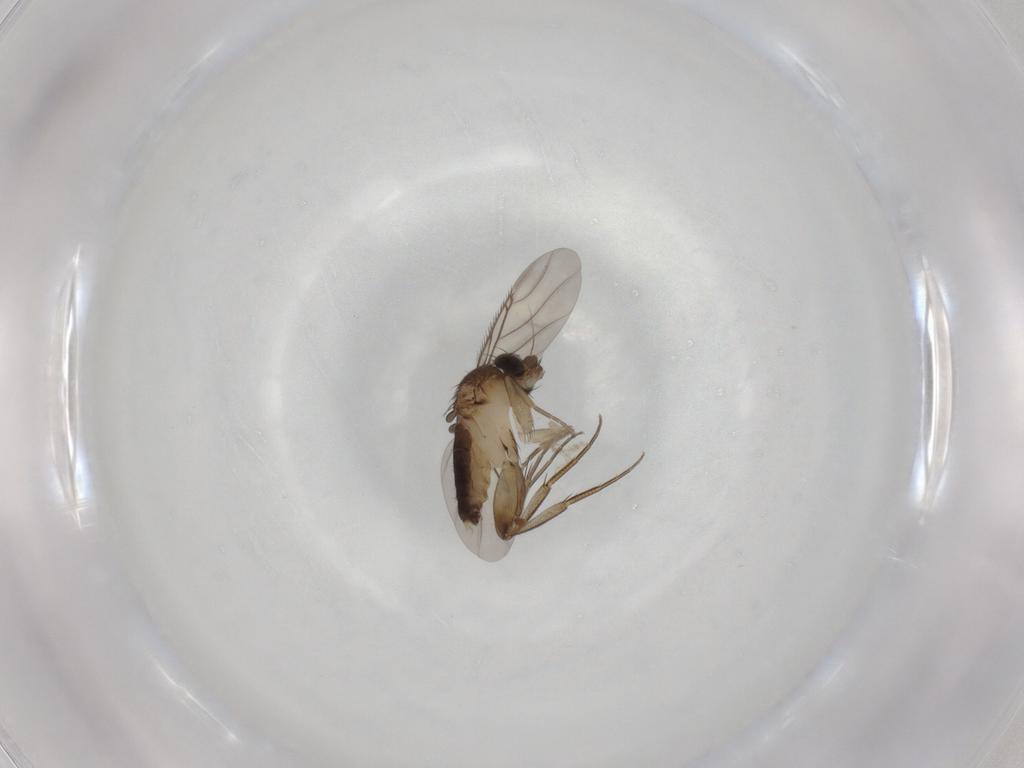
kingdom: Animalia
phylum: Arthropoda
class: Insecta
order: Diptera
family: Phoridae
